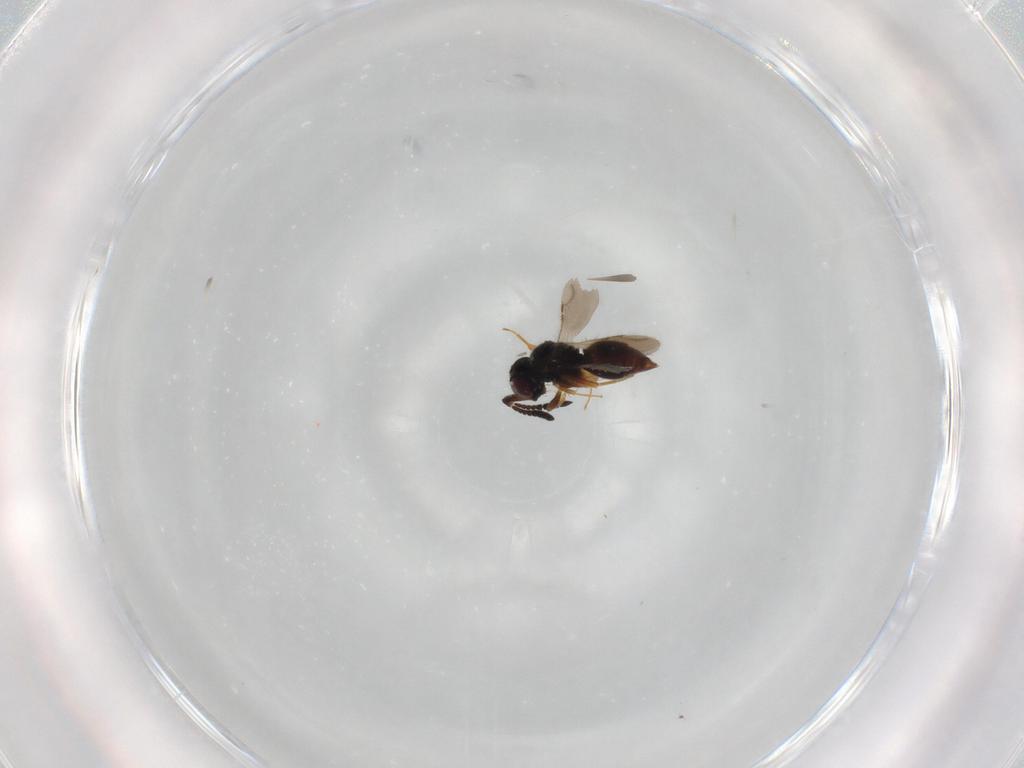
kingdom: Animalia
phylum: Arthropoda
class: Insecta
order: Hymenoptera
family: Ceraphronidae
